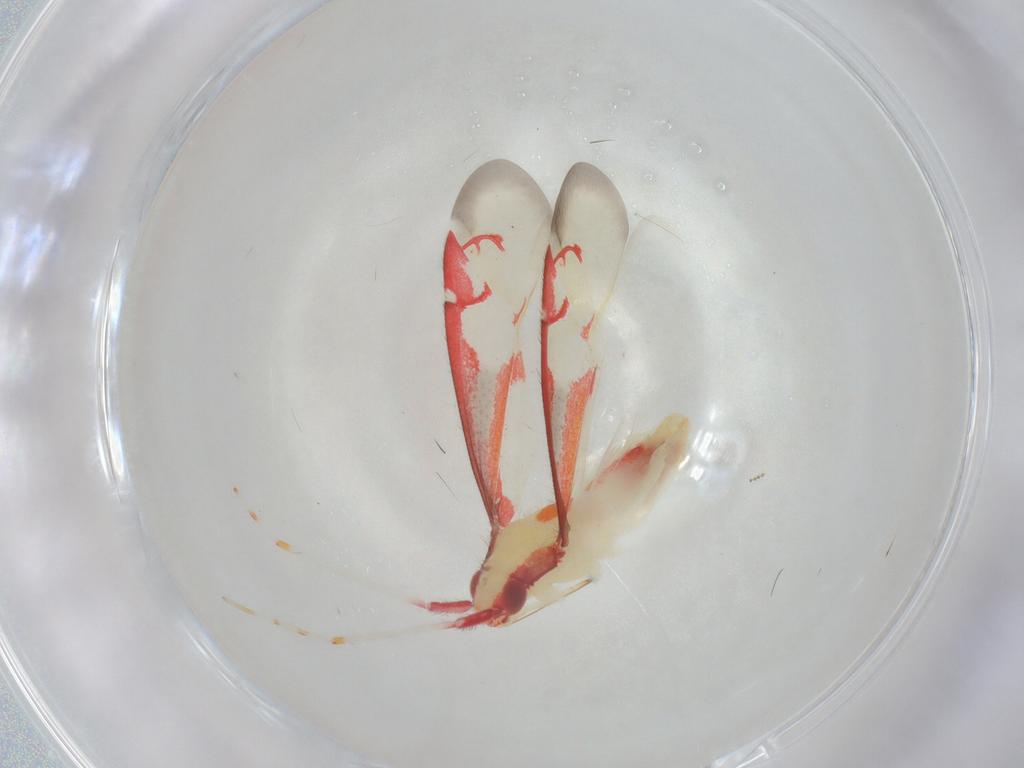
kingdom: Animalia
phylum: Arthropoda
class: Insecta
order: Hemiptera
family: Miridae
